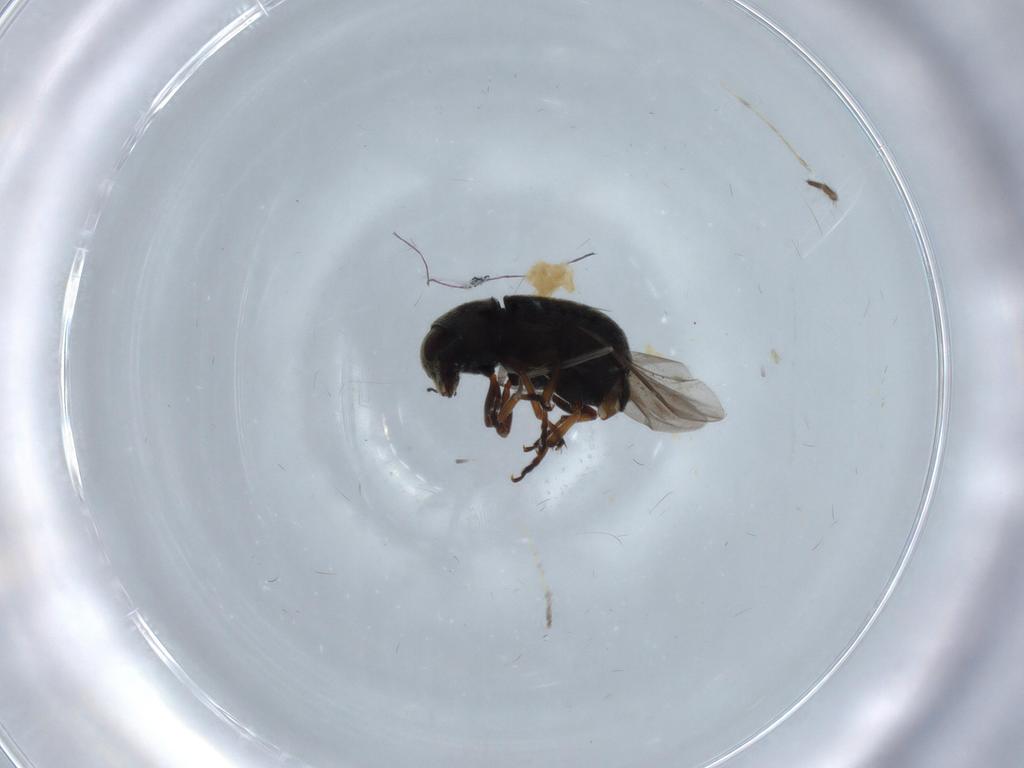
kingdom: Animalia
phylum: Arthropoda
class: Insecta
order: Coleoptera
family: Anthribidae
